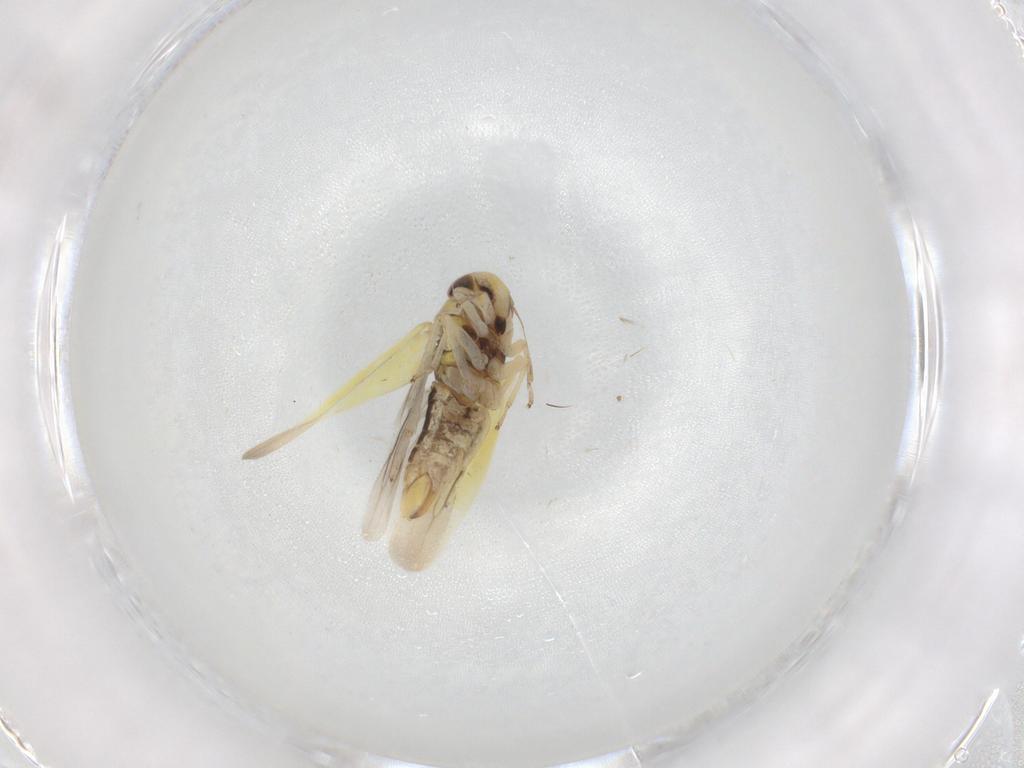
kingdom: Animalia
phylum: Arthropoda
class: Insecta
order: Hemiptera
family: Cicadellidae
